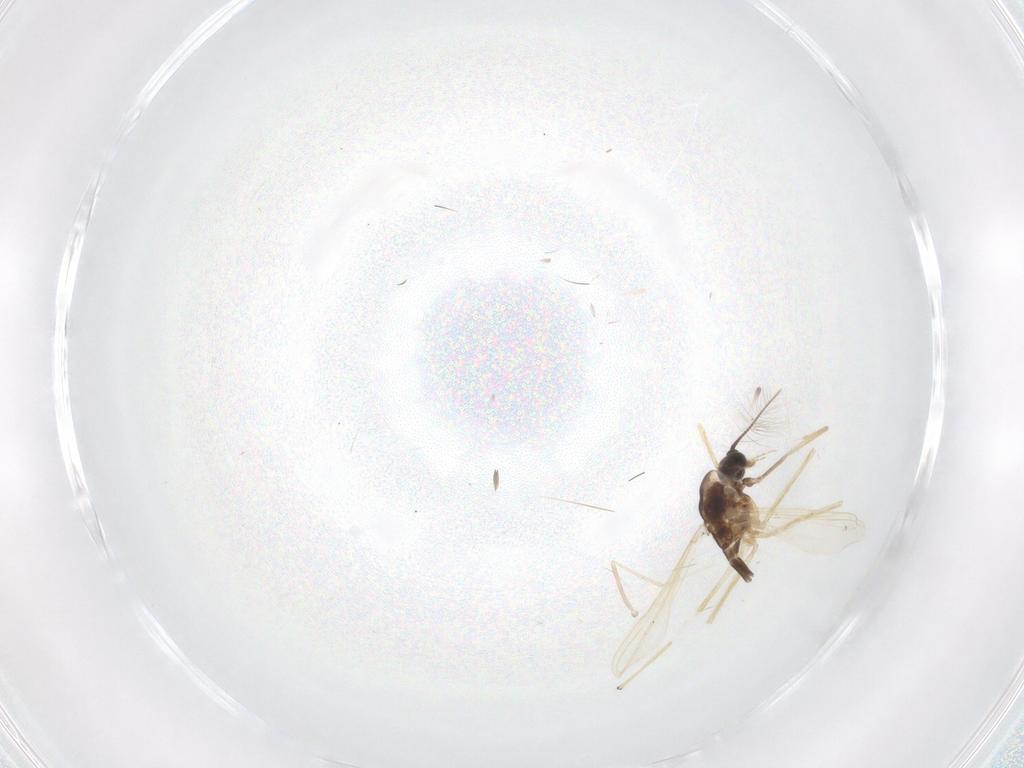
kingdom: Animalia
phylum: Arthropoda
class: Insecta
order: Diptera
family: Chironomidae
